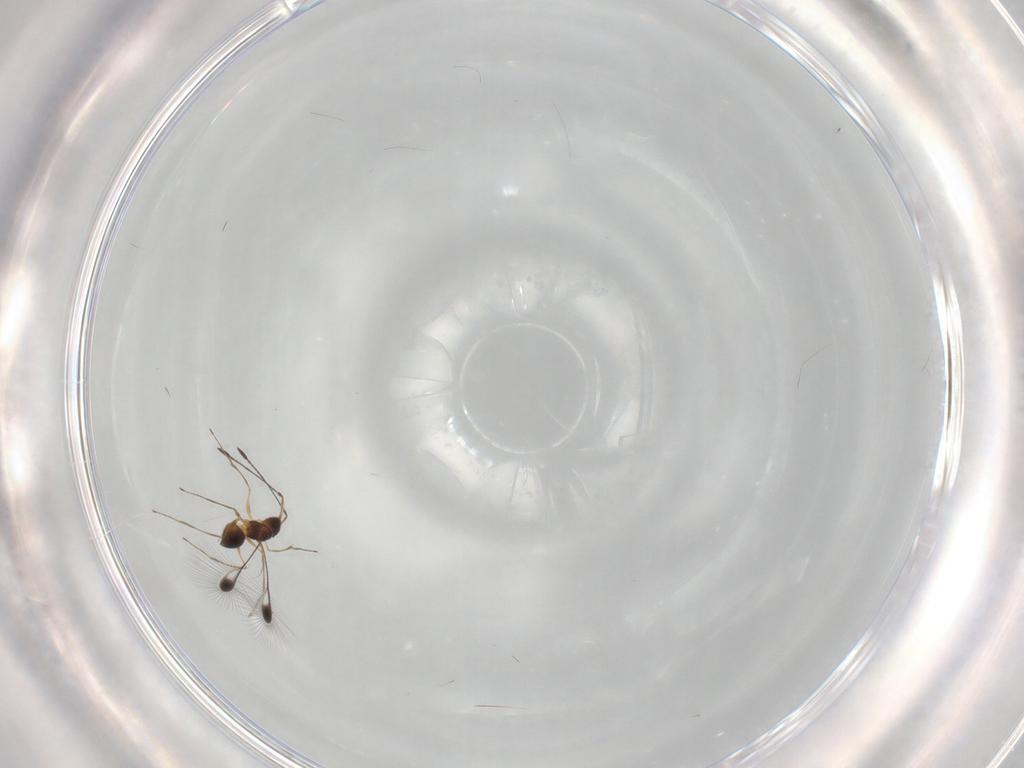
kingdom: Animalia
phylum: Arthropoda
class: Insecta
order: Hymenoptera
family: Mymaridae
